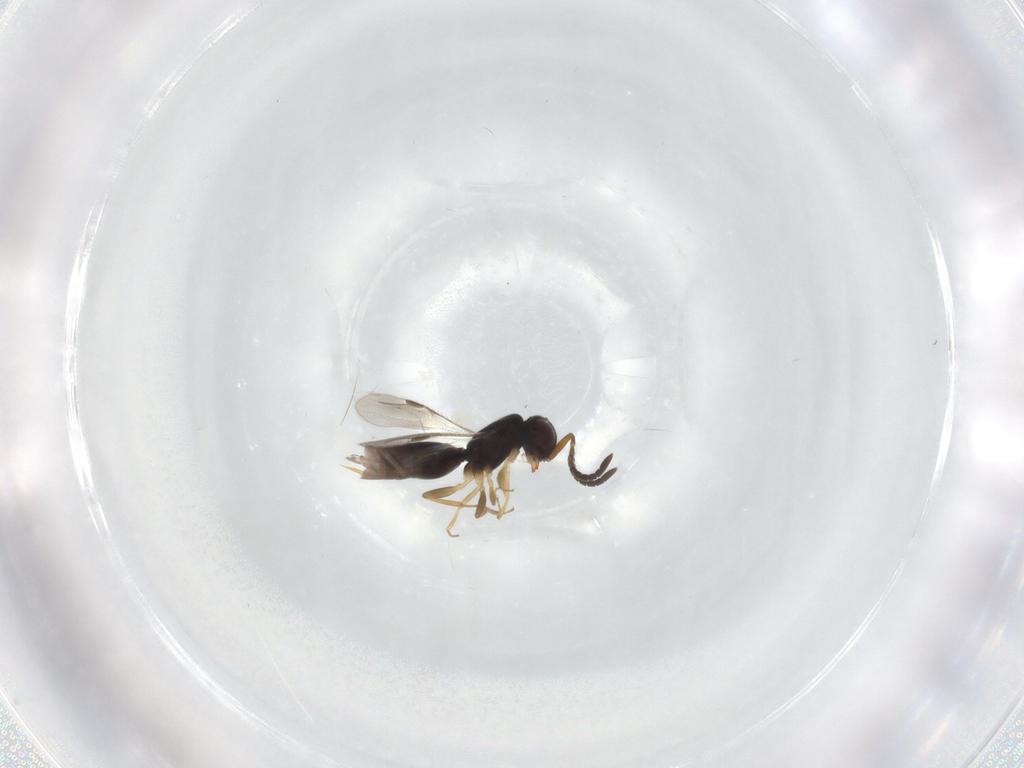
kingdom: Animalia
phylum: Arthropoda
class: Insecta
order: Hymenoptera
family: Megaspilidae
